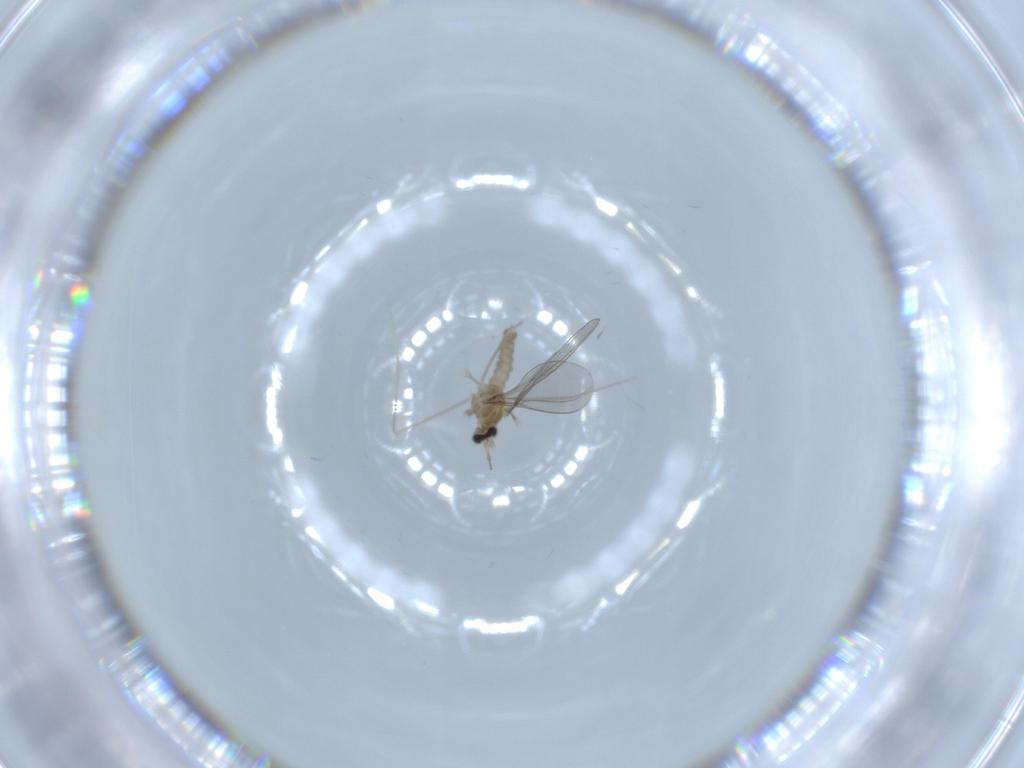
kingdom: Animalia
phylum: Arthropoda
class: Insecta
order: Diptera
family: Cecidomyiidae
